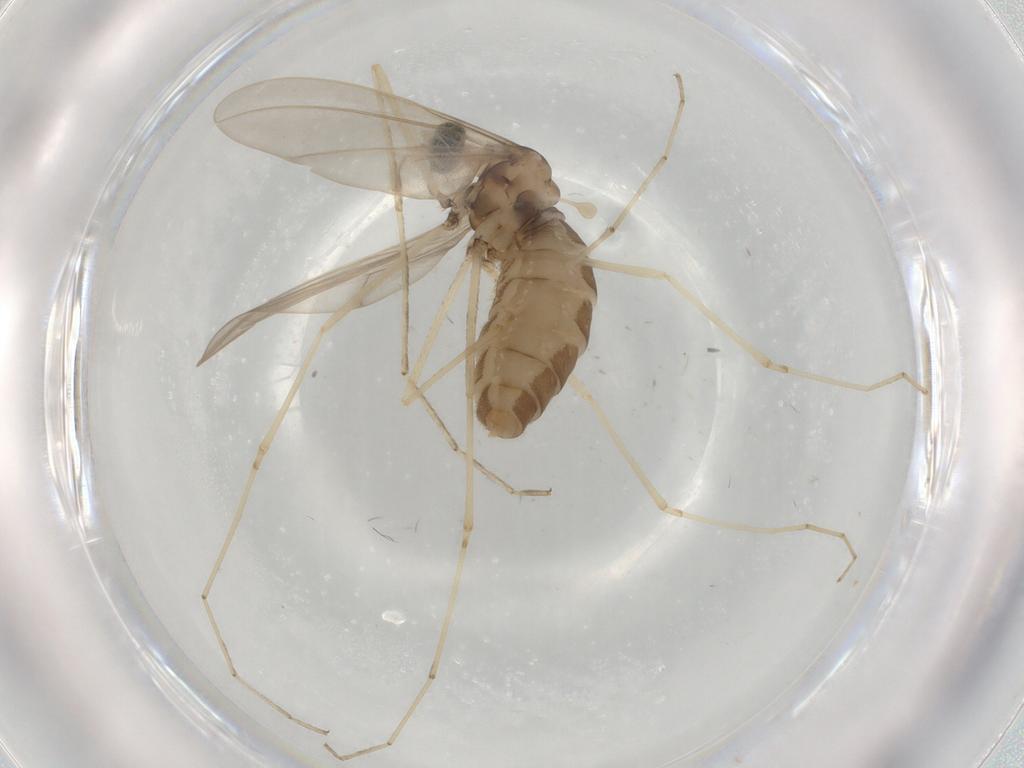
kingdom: Animalia
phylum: Arthropoda
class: Insecta
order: Diptera
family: Cecidomyiidae
